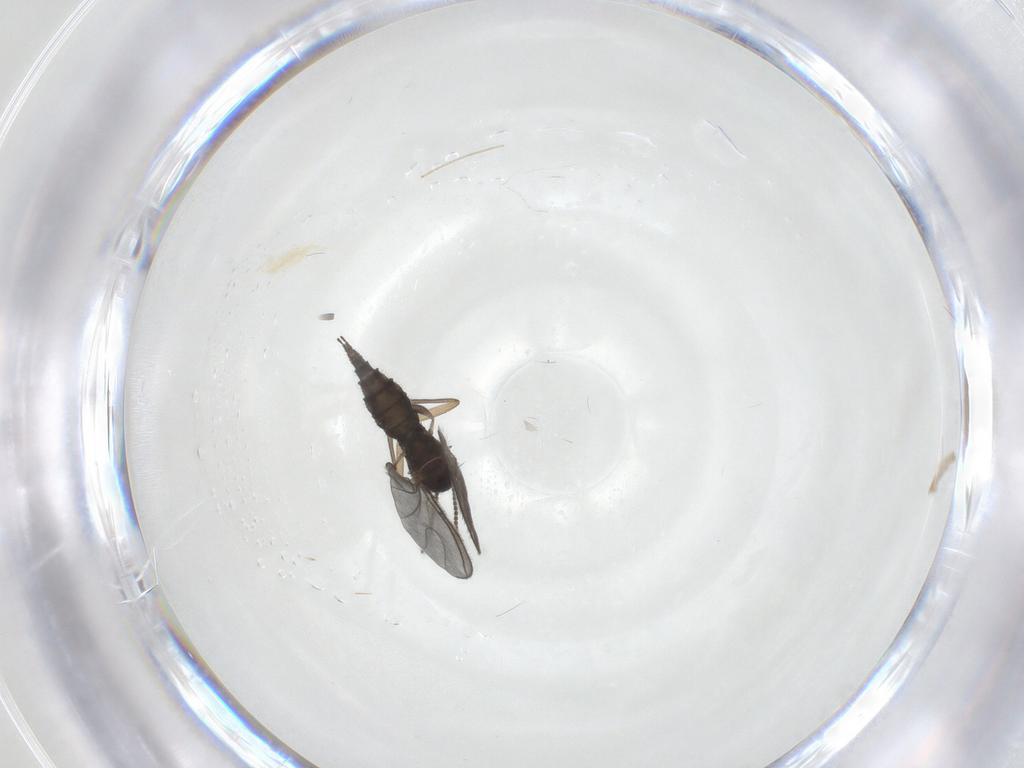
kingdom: Animalia
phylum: Arthropoda
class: Insecta
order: Diptera
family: Sciaridae
